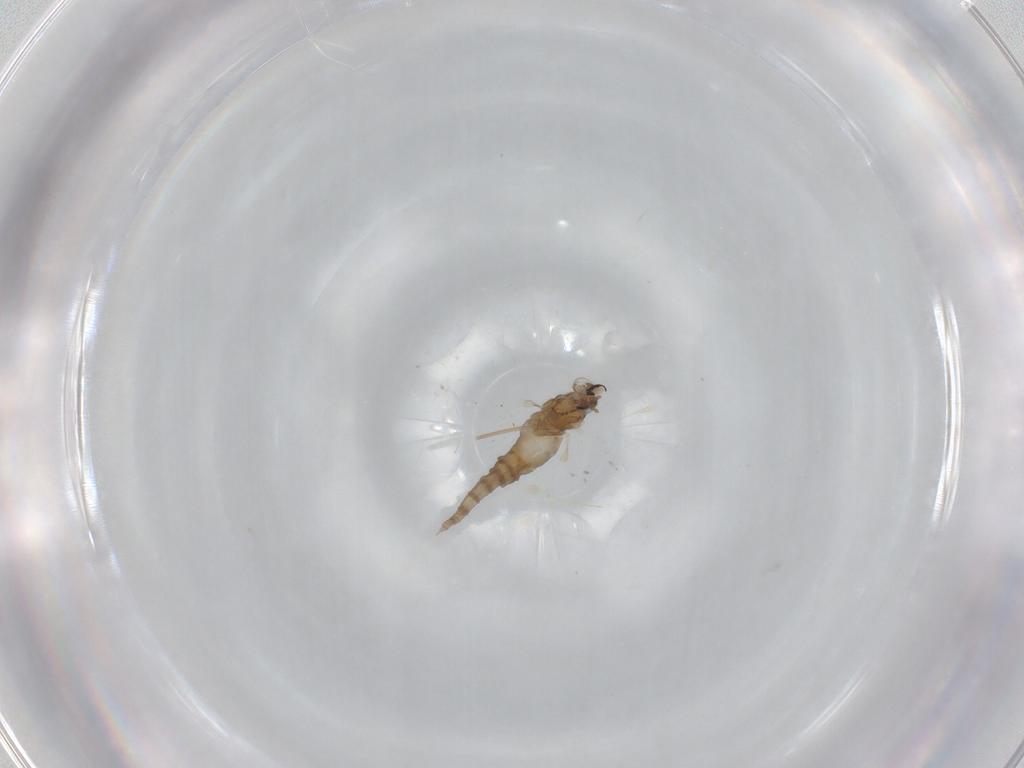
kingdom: Animalia
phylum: Arthropoda
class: Insecta
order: Diptera
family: Cecidomyiidae
